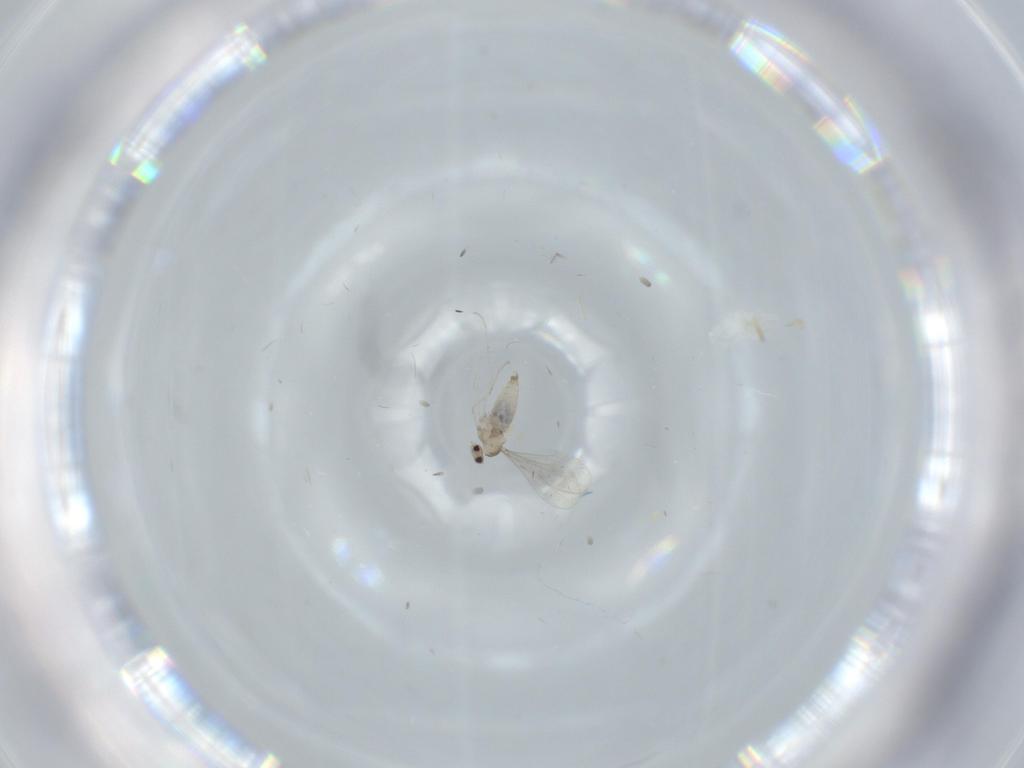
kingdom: Animalia
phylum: Arthropoda
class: Insecta
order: Diptera
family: Cecidomyiidae
